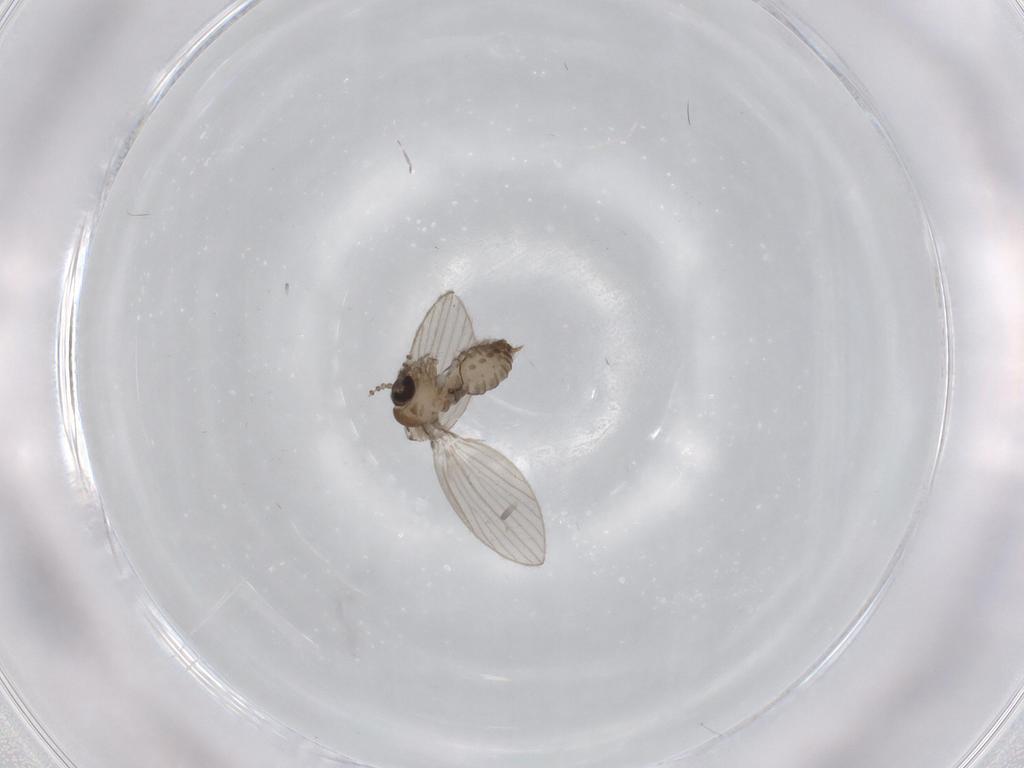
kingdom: Animalia
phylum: Arthropoda
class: Insecta
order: Diptera
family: Psychodidae
